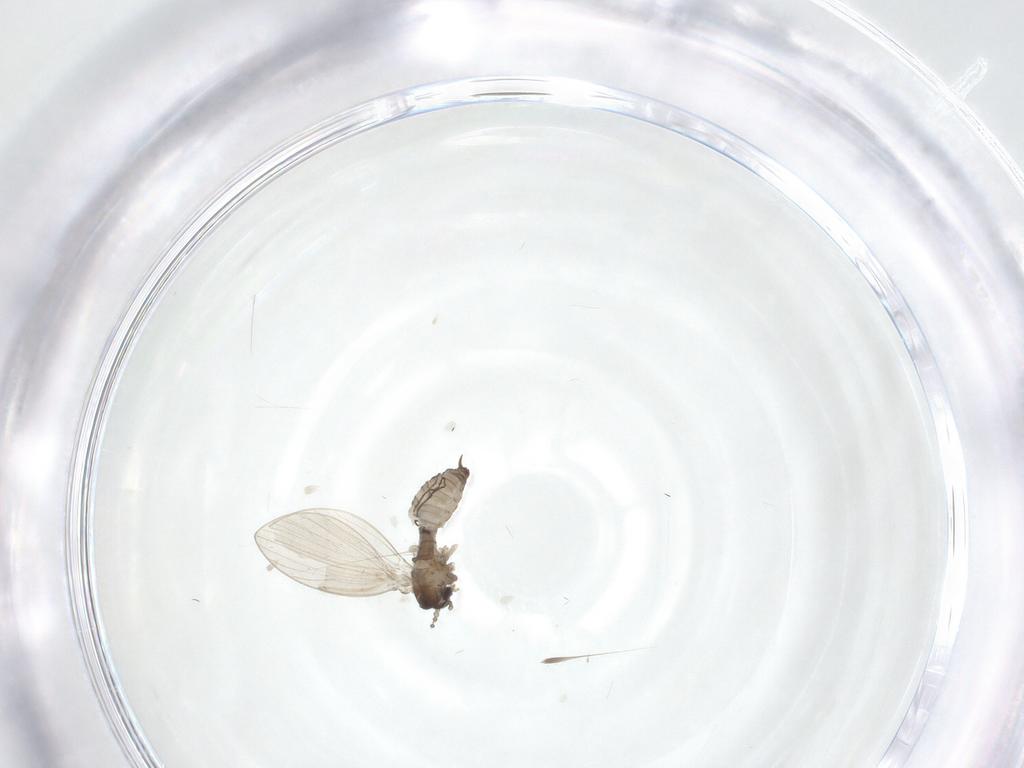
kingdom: Animalia
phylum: Arthropoda
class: Insecta
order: Diptera
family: Psychodidae
